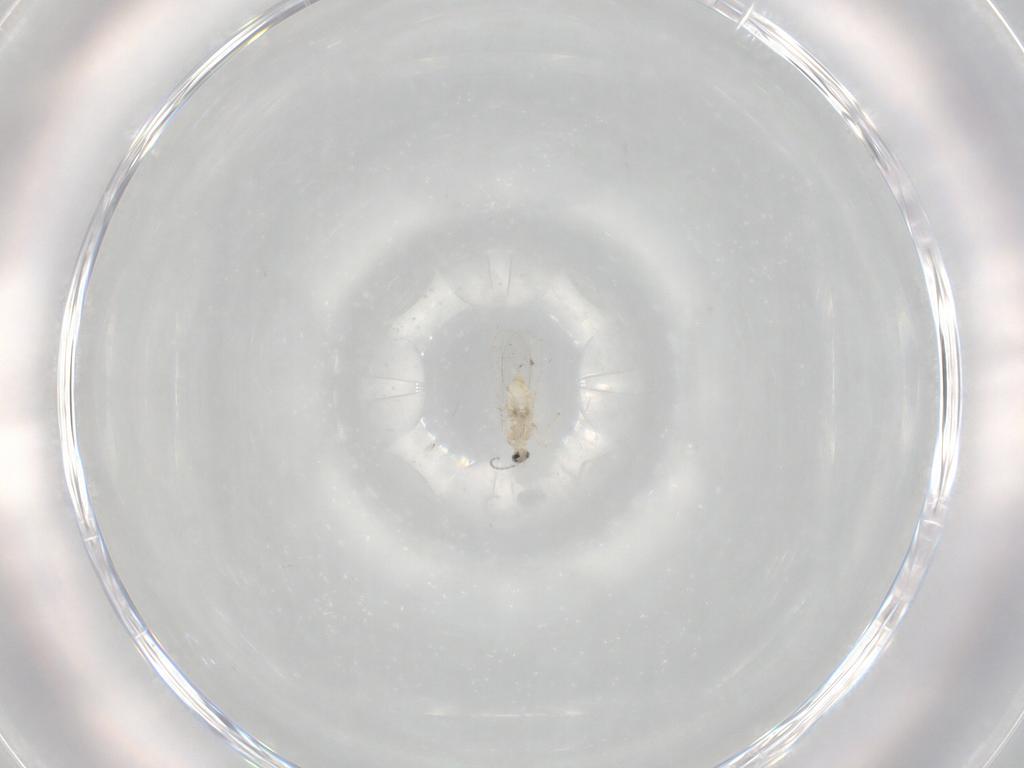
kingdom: Animalia
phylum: Arthropoda
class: Insecta
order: Diptera
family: Cecidomyiidae
